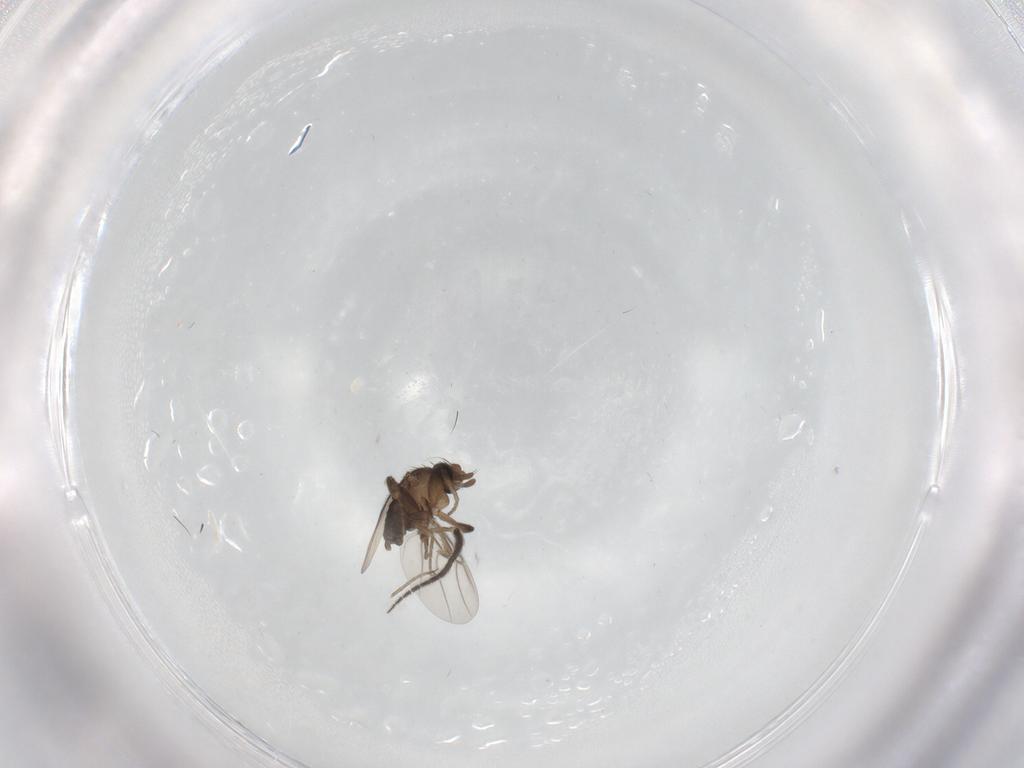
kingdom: Animalia
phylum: Arthropoda
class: Insecta
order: Diptera
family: Sciaridae
